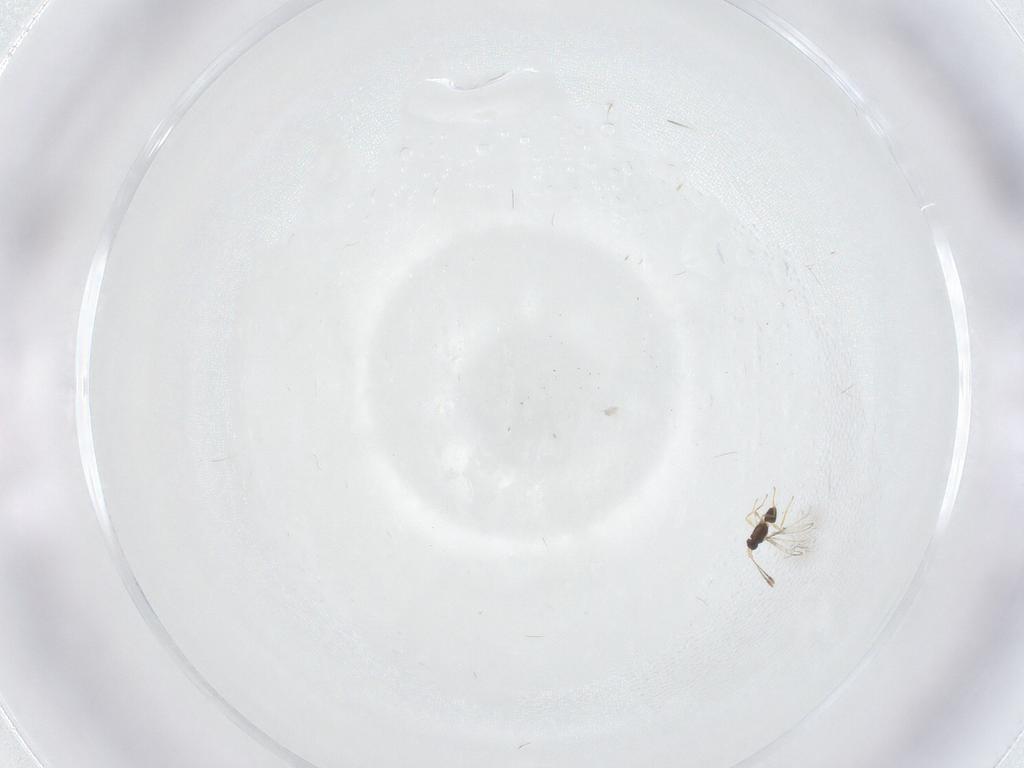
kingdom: Animalia
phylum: Arthropoda
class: Insecta
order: Hymenoptera
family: Mymaridae
